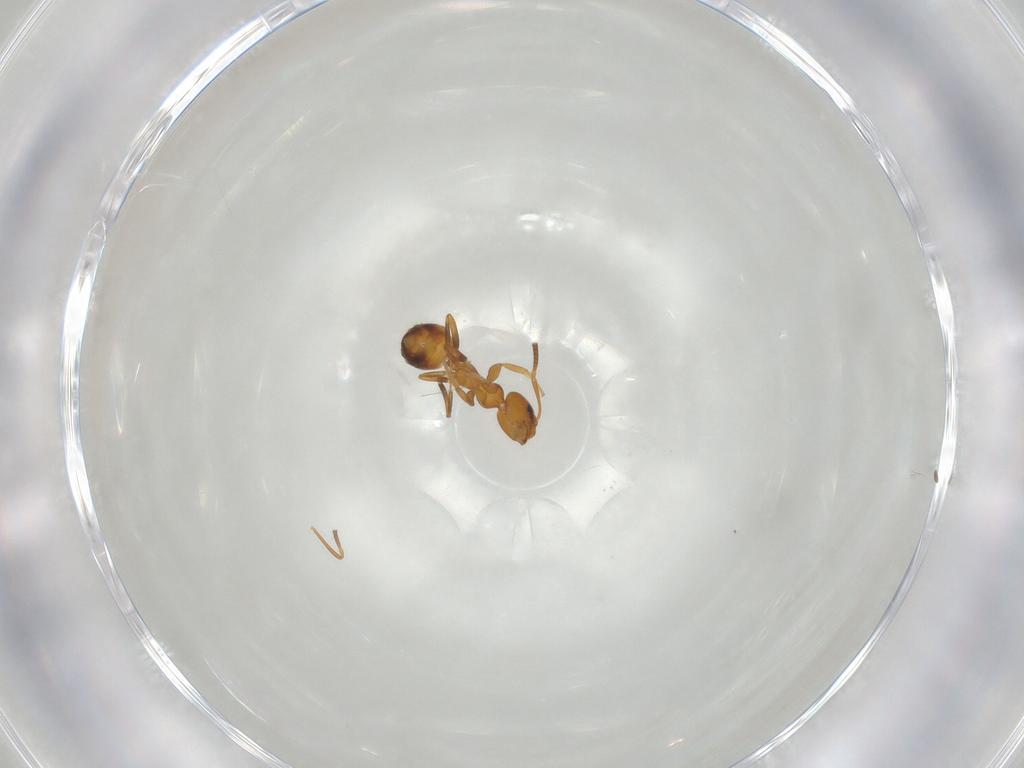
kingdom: Animalia
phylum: Arthropoda
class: Insecta
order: Hymenoptera
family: Formicidae
